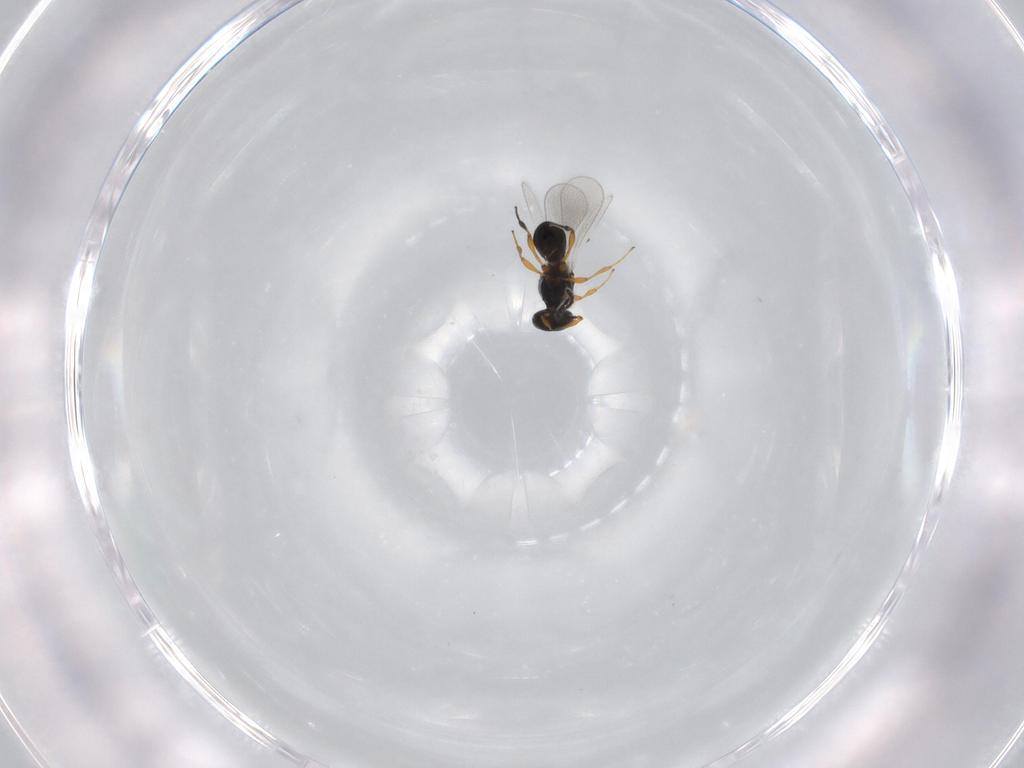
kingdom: Animalia
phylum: Arthropoda
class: Insecta
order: Hymenoptera
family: Platygastridae
